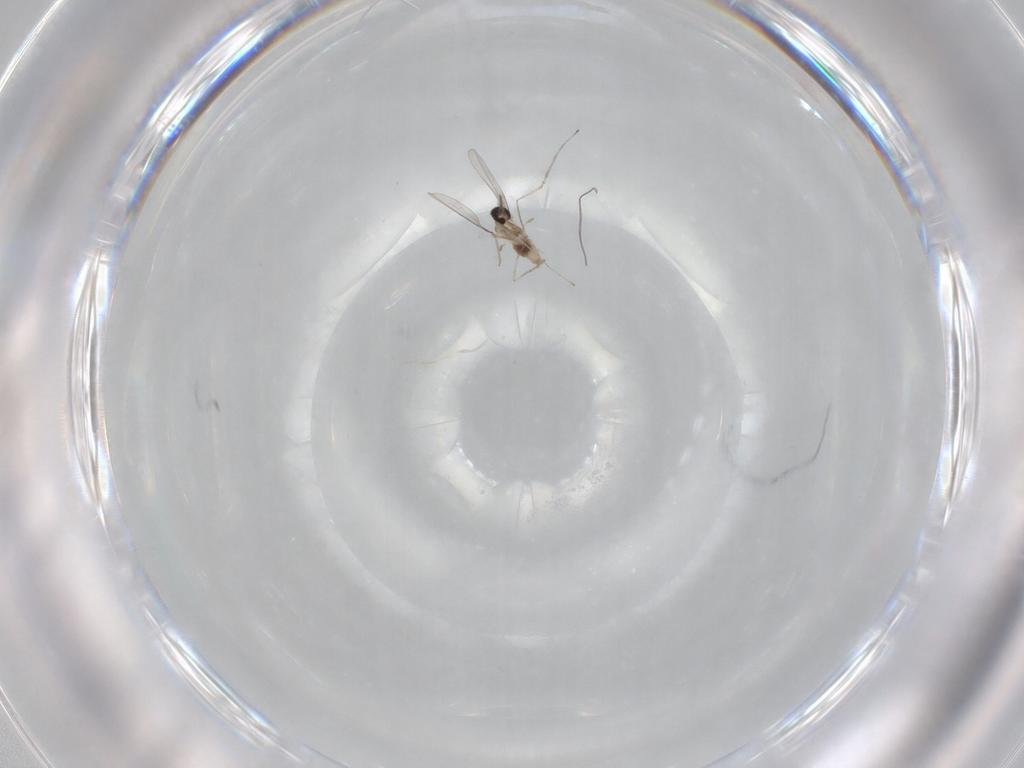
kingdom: Animalia
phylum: Arthropoda
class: Insecta
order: Diptera
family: Cecidomyiidae
